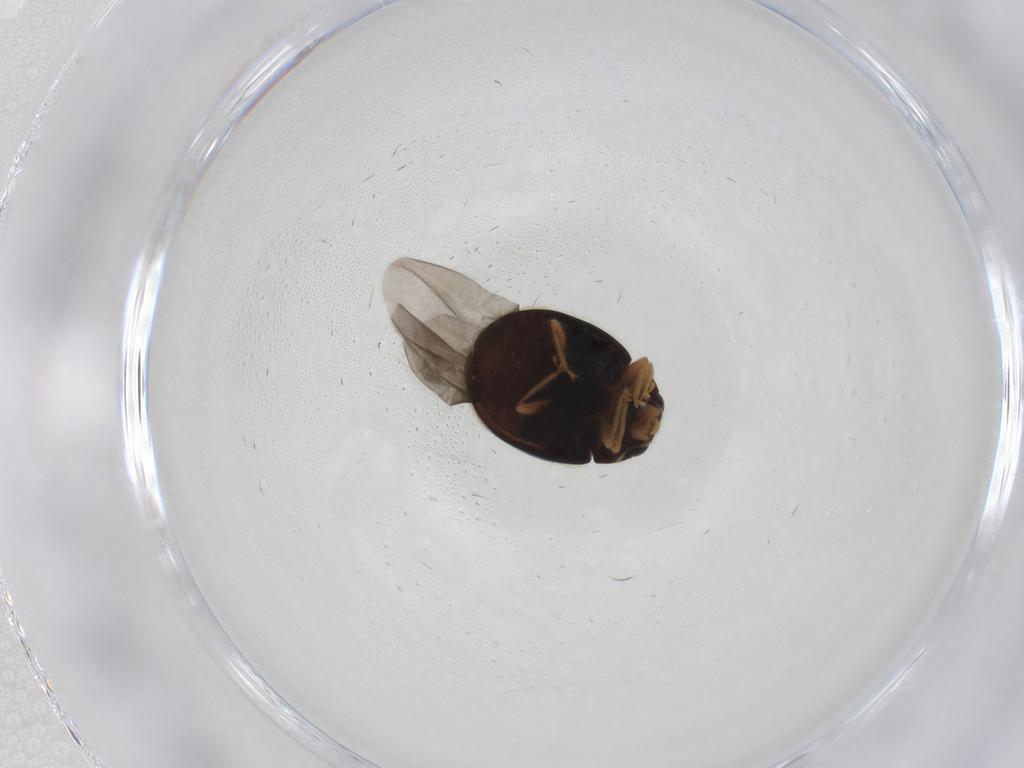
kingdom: Animalia
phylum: Arthropoda
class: Insecta
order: Coleoptera
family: Coccinellidae
